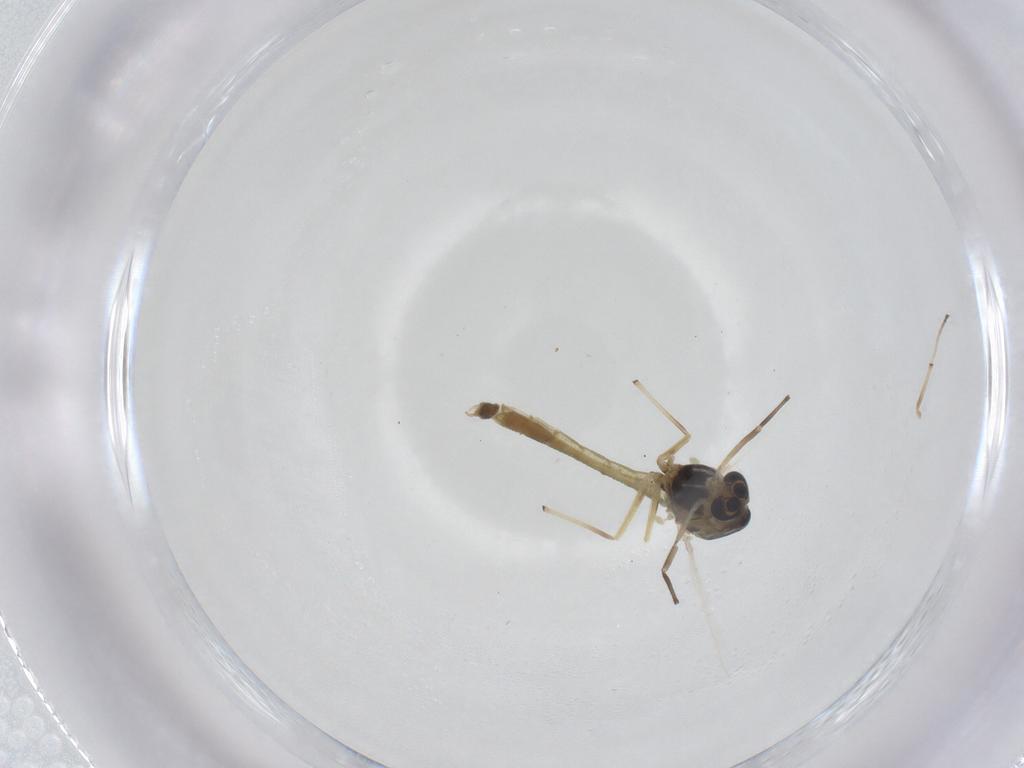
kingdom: Animalia
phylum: Arthropoda
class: Insecta
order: Diptera
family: Chironomidae
